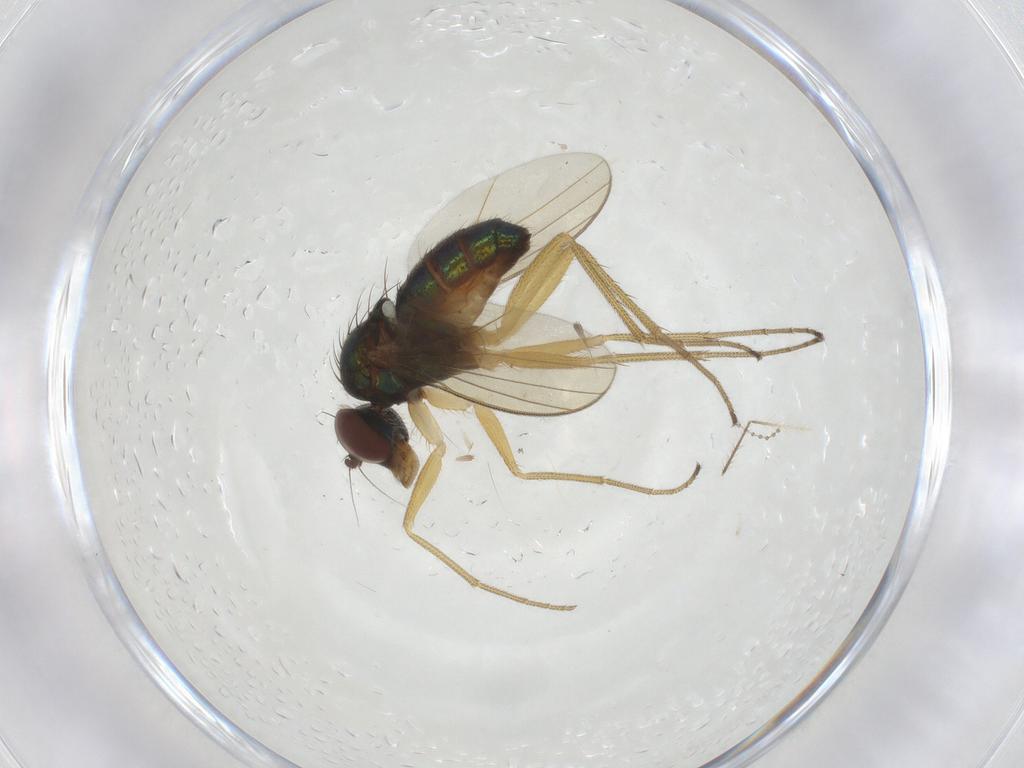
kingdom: Animalia
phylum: Arthropoda
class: Insecta
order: Diptera
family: Dolichopodidae
